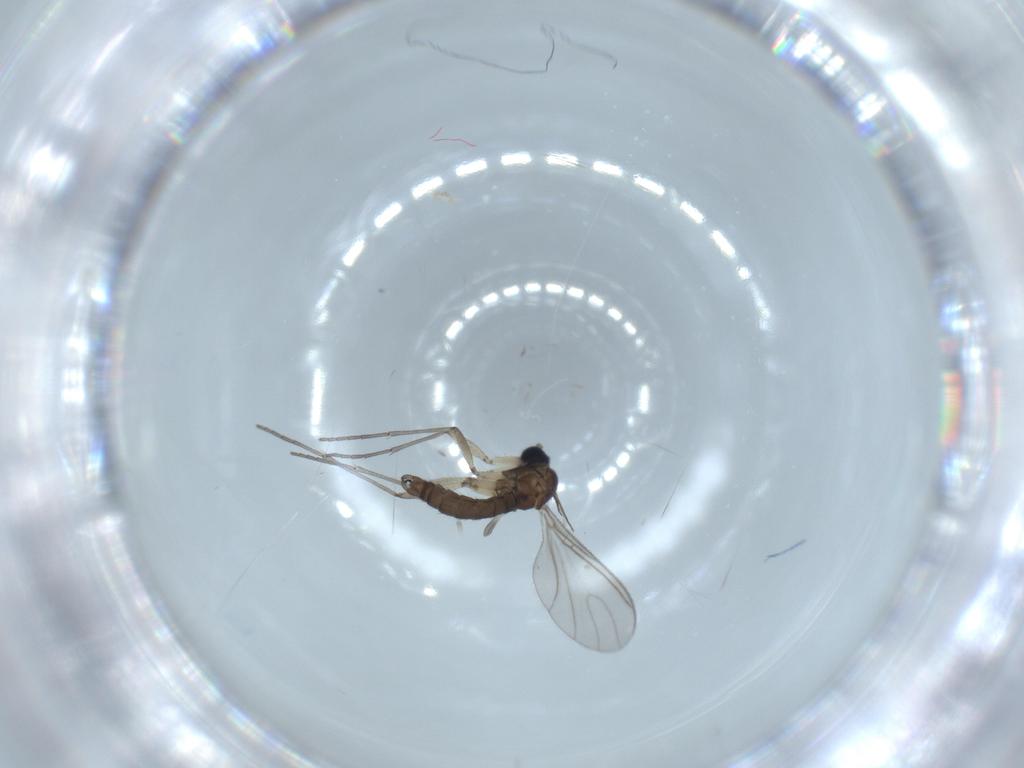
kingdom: Animalia
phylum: Arthropoda
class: Insecta
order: Diptera
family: Sciaridae
